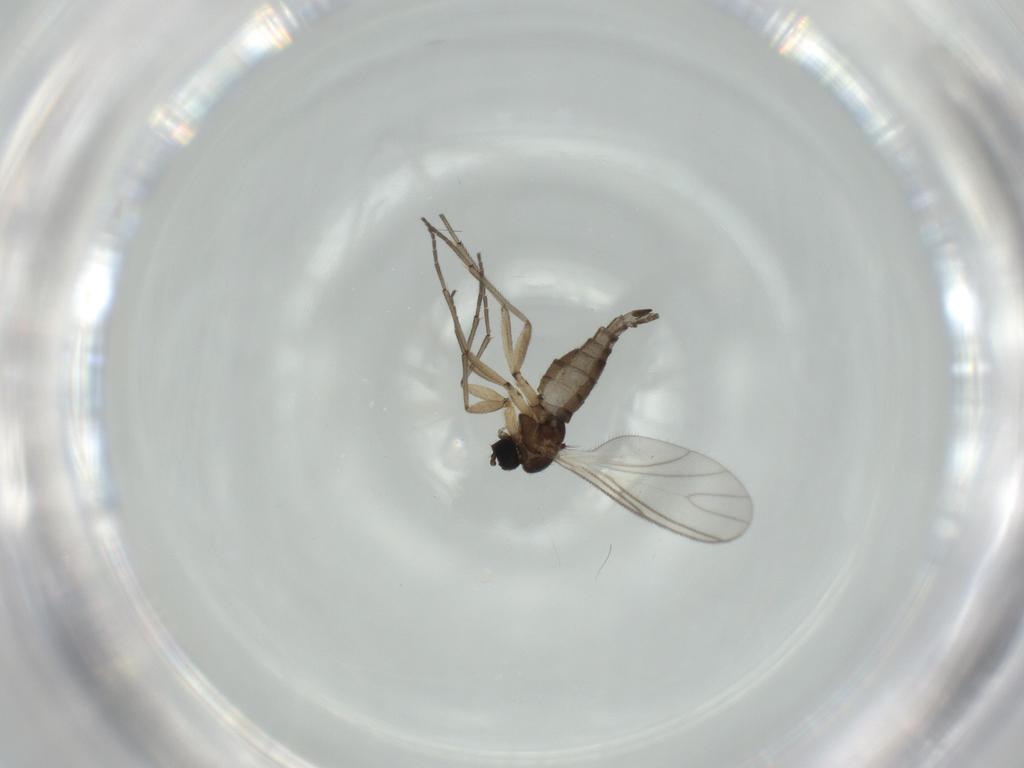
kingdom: Animalia
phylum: Arthropoda
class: Insecta
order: Diptera
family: Sciaridae
